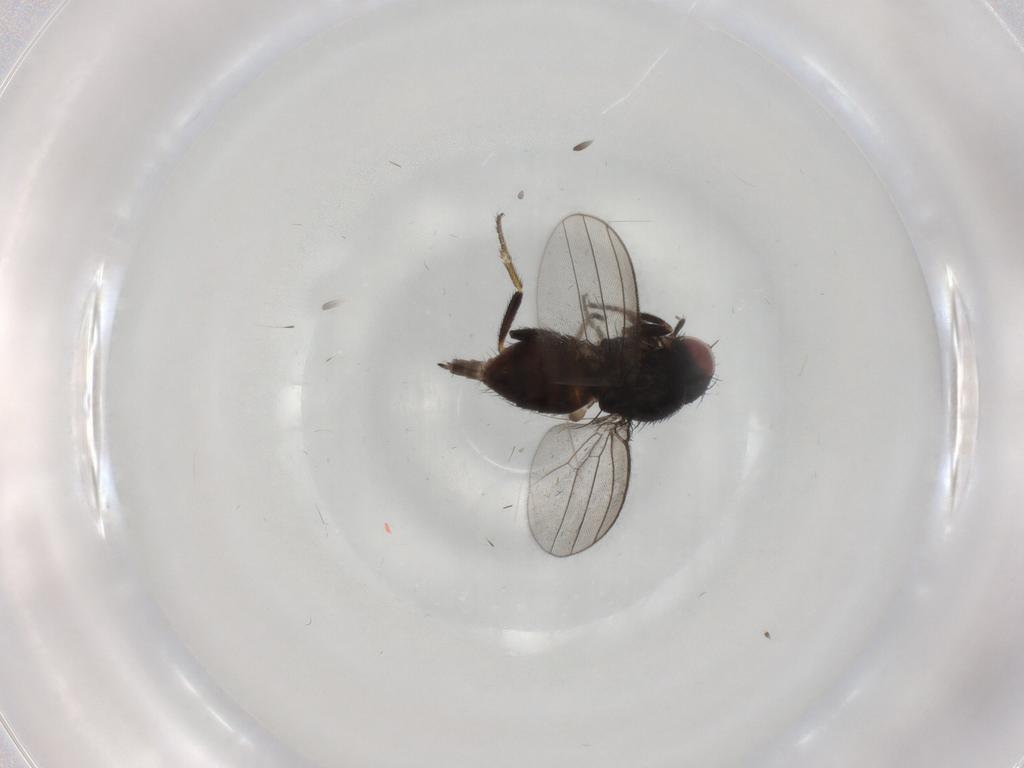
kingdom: Animalia
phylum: Arthropoda
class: Insecta
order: Diptera
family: Milichiidae
